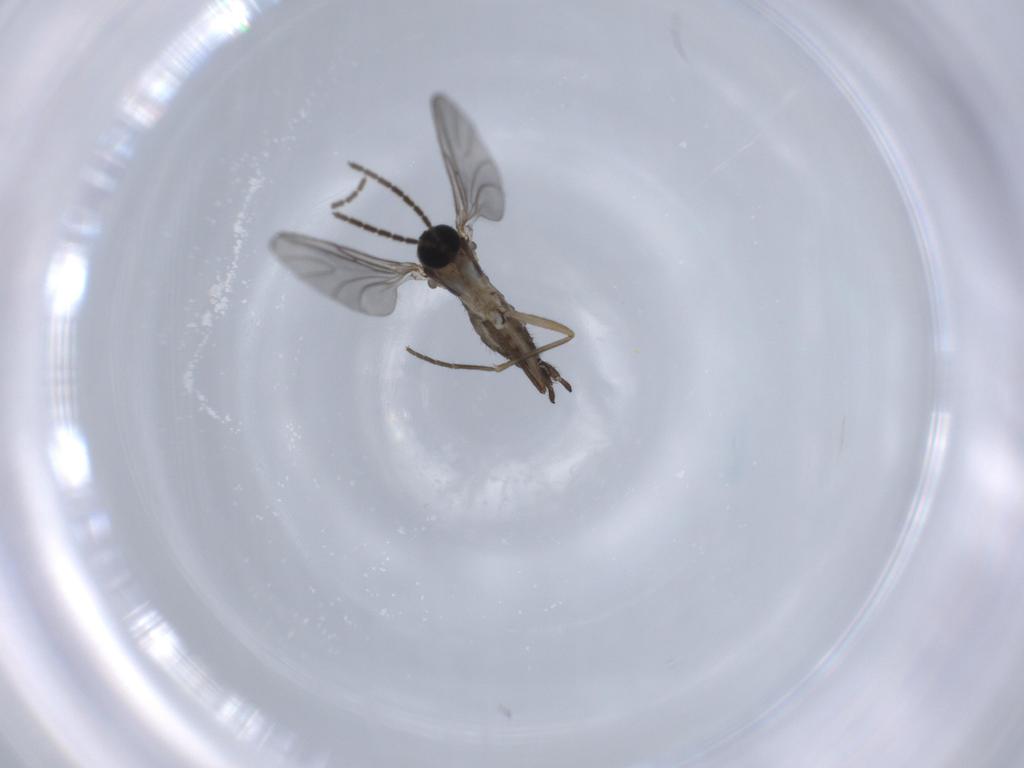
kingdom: Animalia
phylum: Arthropoda
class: Insecta
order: Diptera
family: Sciaridae
